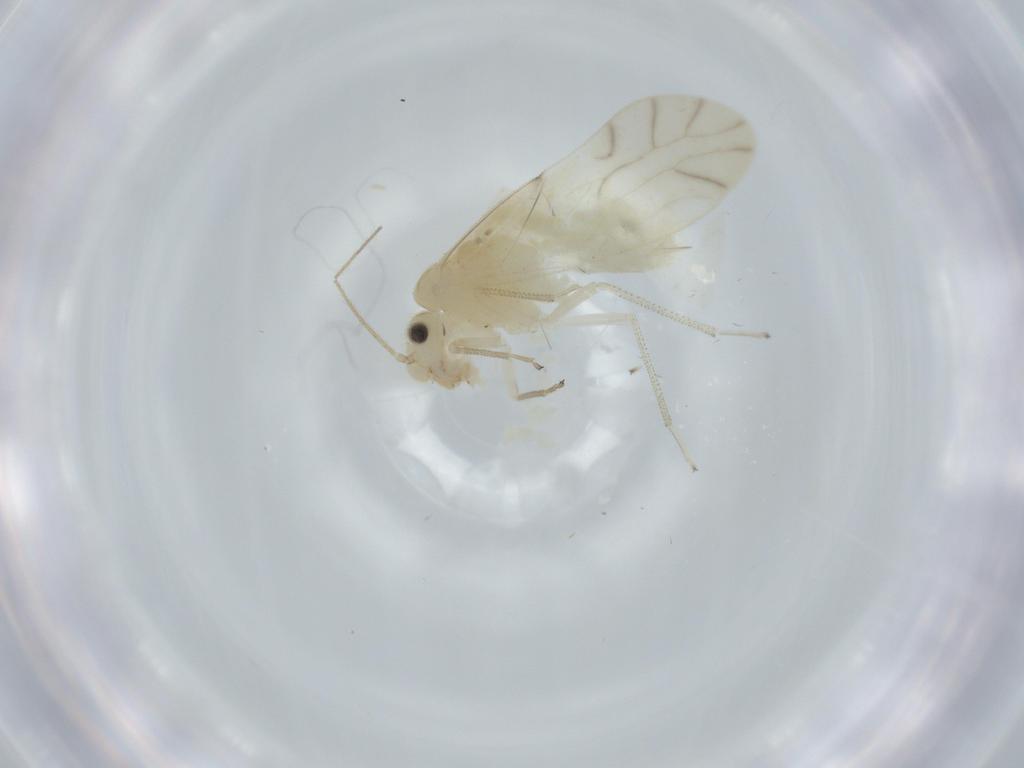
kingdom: Animalia
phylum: Arthropoda
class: Insecta
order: Psocodea
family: Caeciliusidae
